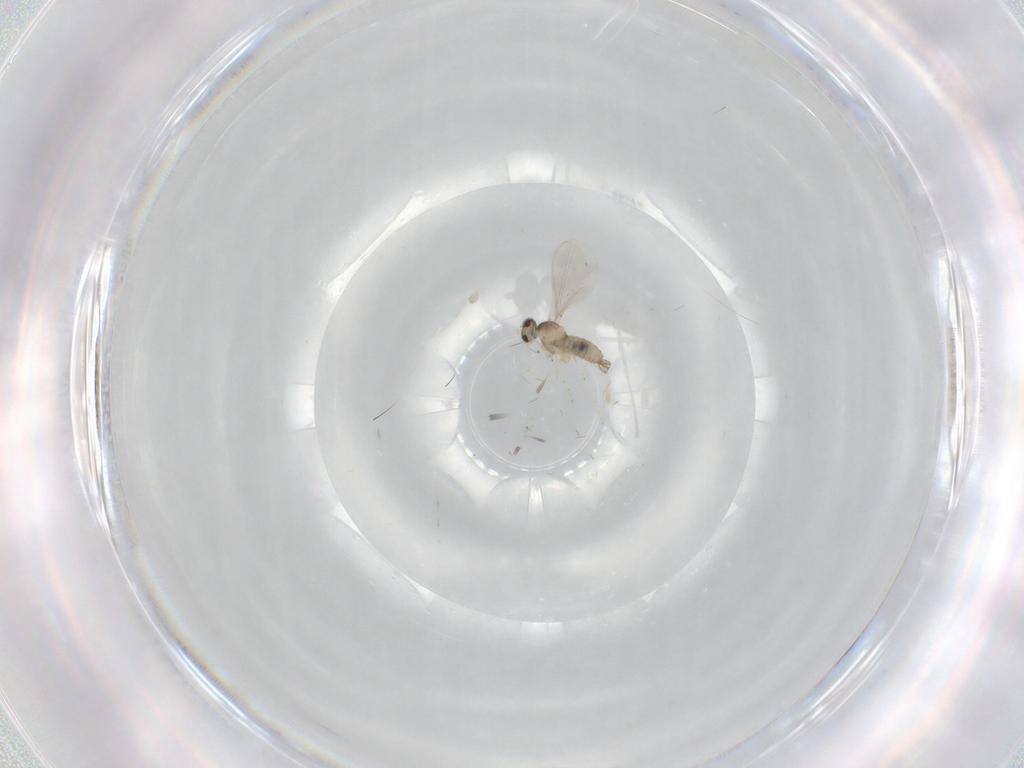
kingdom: Animalia
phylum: Arthropoda
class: Insecta
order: Diptera
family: Cecidomyiidae
